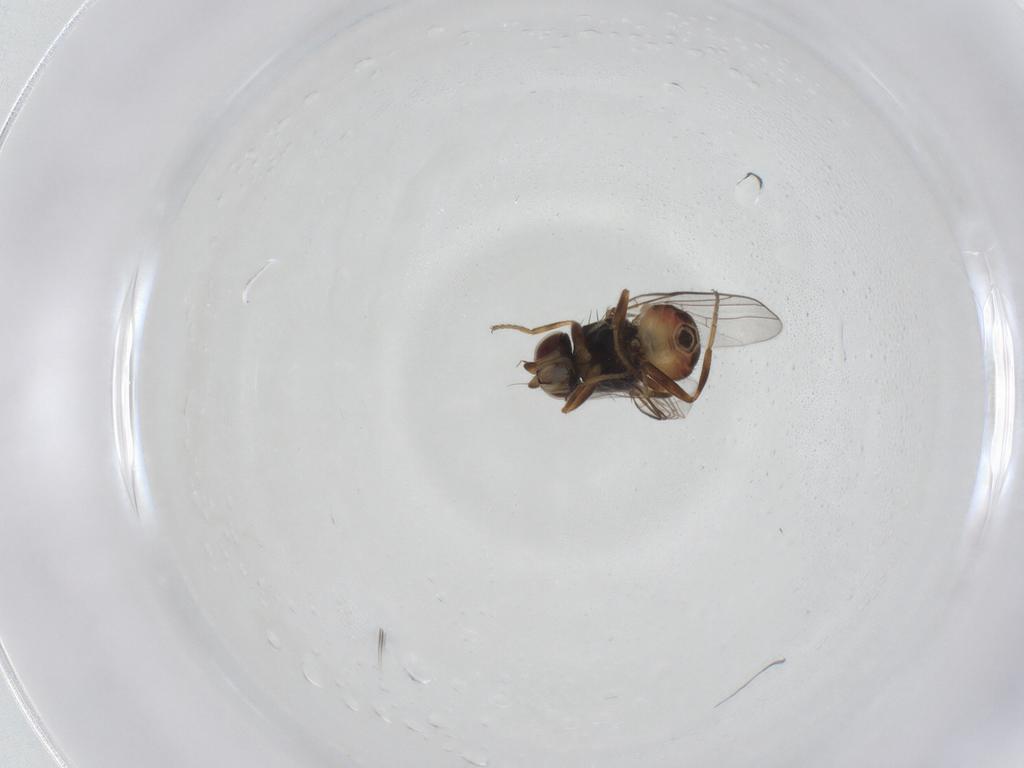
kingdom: Animalia
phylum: Arthropoda
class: Insecta
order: Diptera
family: Chloropidae
